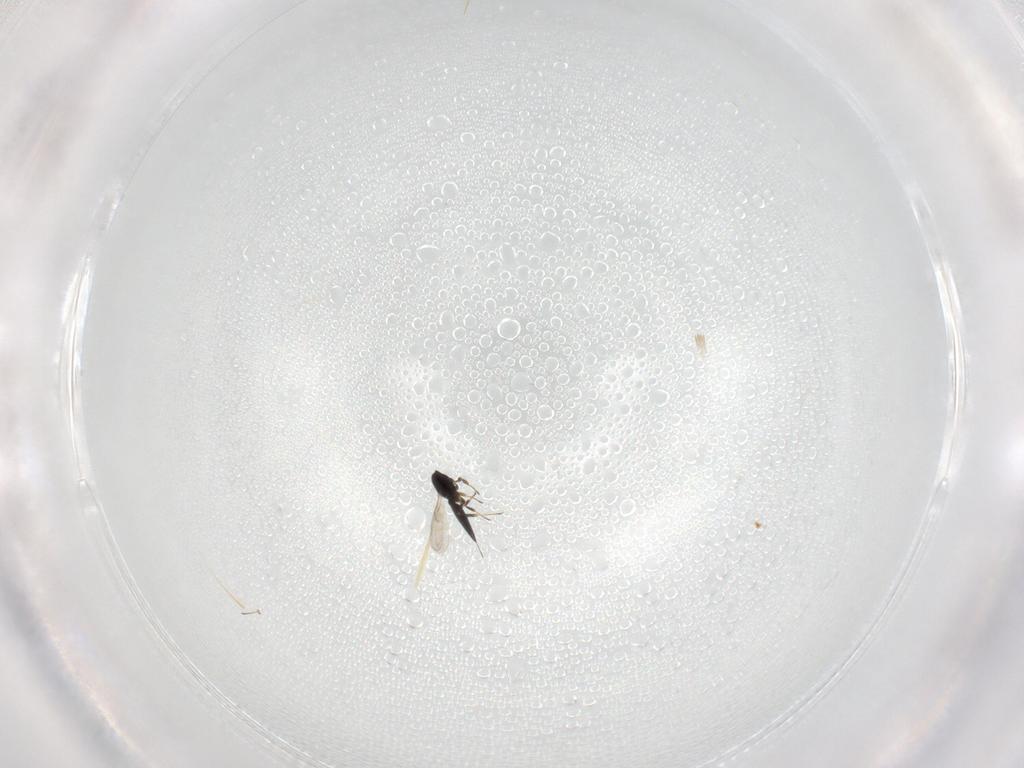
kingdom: Animalia
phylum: Arthropoda
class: Insecta
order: Hymenoptera
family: Scelionidae
